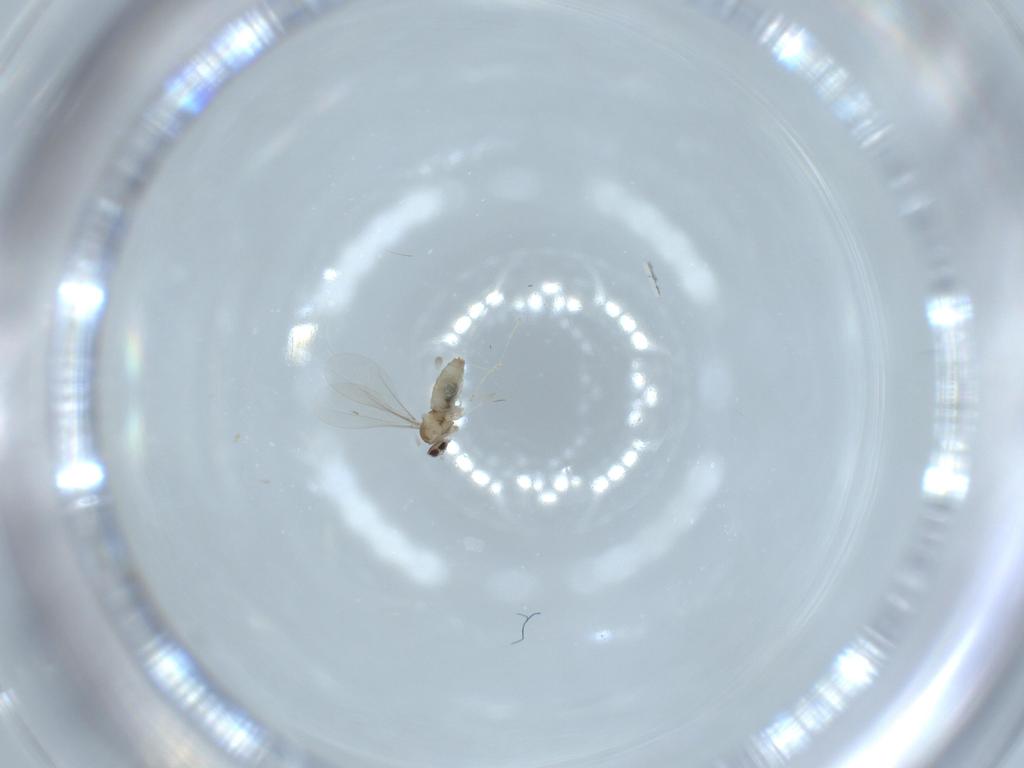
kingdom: Animalia
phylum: Arthropoda
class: Insecta
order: Diptera
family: Cecidomyiidae
